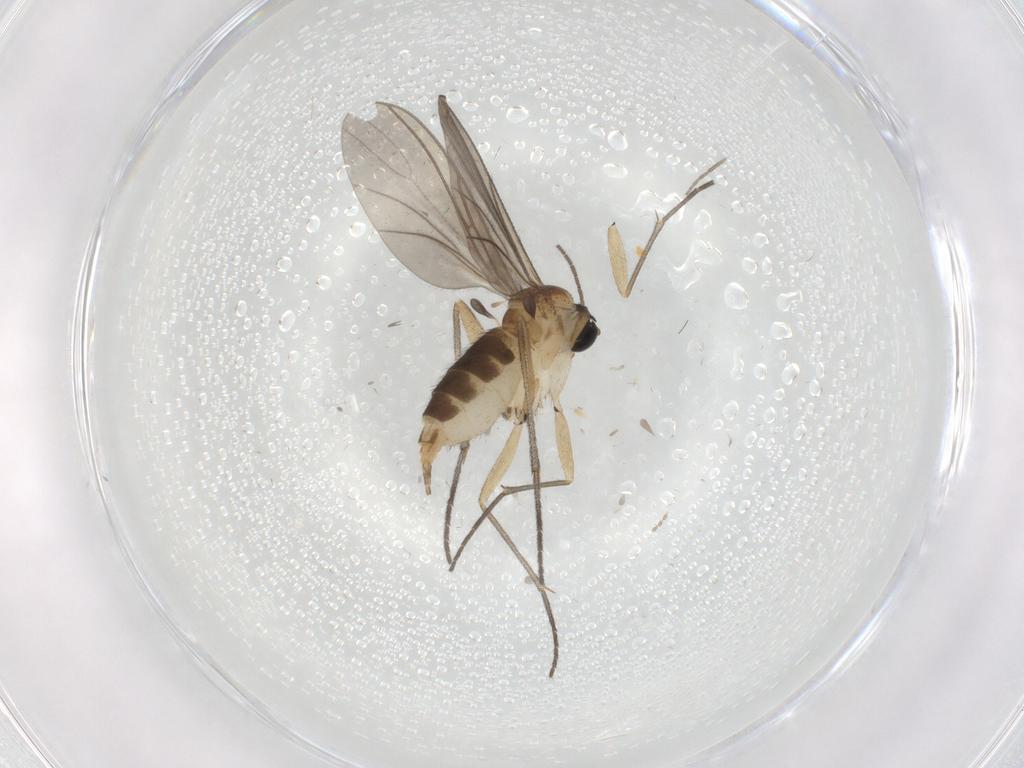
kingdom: Animalia
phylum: Arthropoda
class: Insecta
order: Diptera
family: Sciaridae
